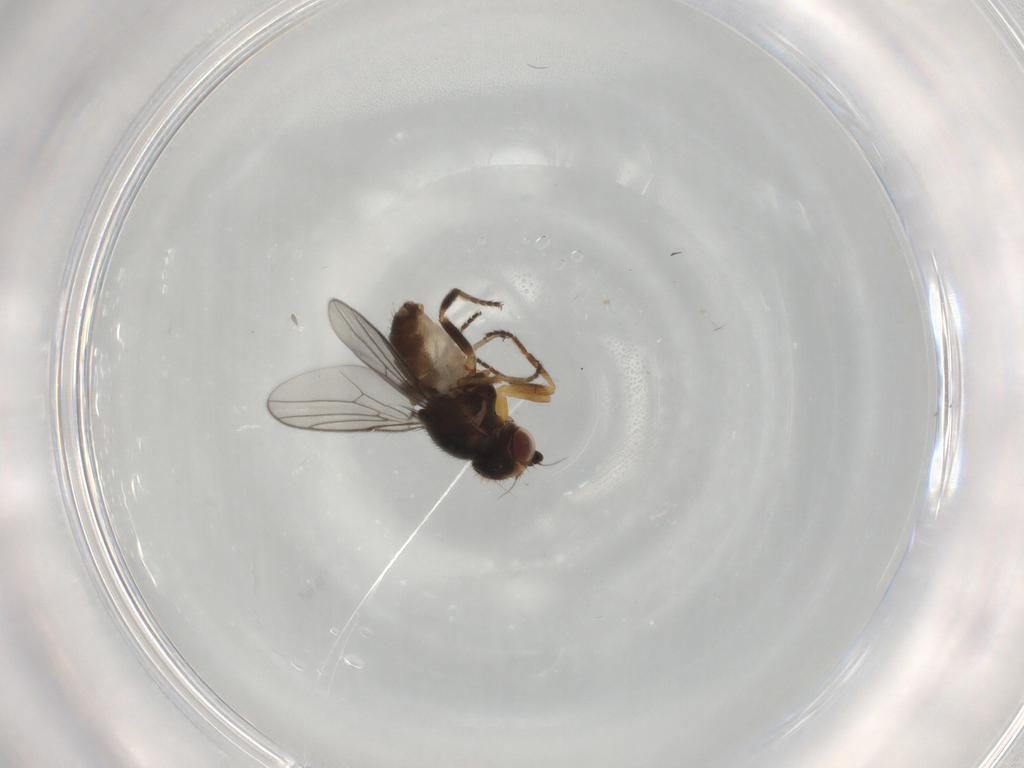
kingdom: Animalia
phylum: Arthropoda
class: Insecta
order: Diptera
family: Chloropidae
